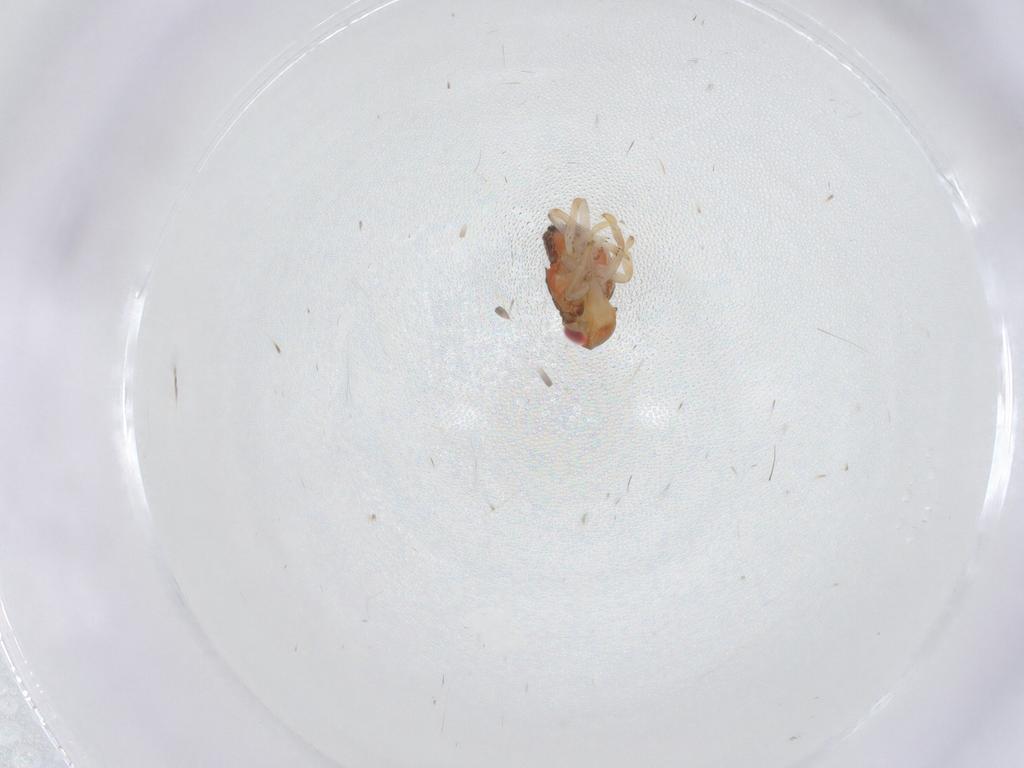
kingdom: Animalia
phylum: Arthropoda
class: Insecta
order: Hemiptera
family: Issidae
